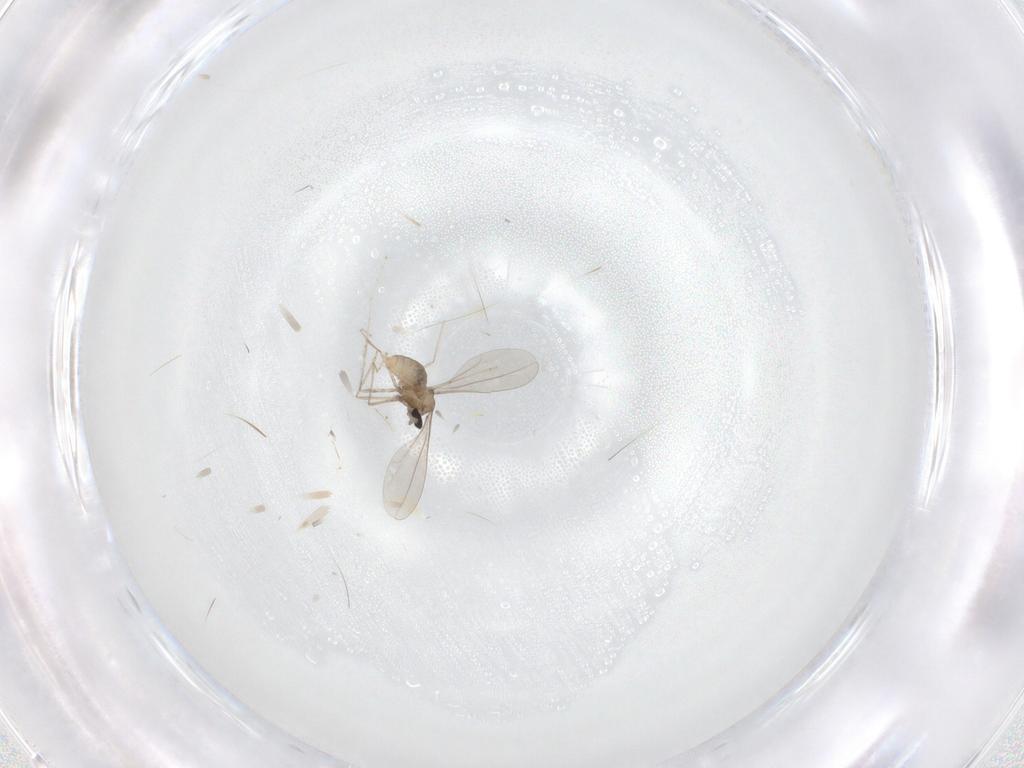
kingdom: Animalia
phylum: Arthropoda
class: Insecta
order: Diptera
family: Cecidomyiidae
